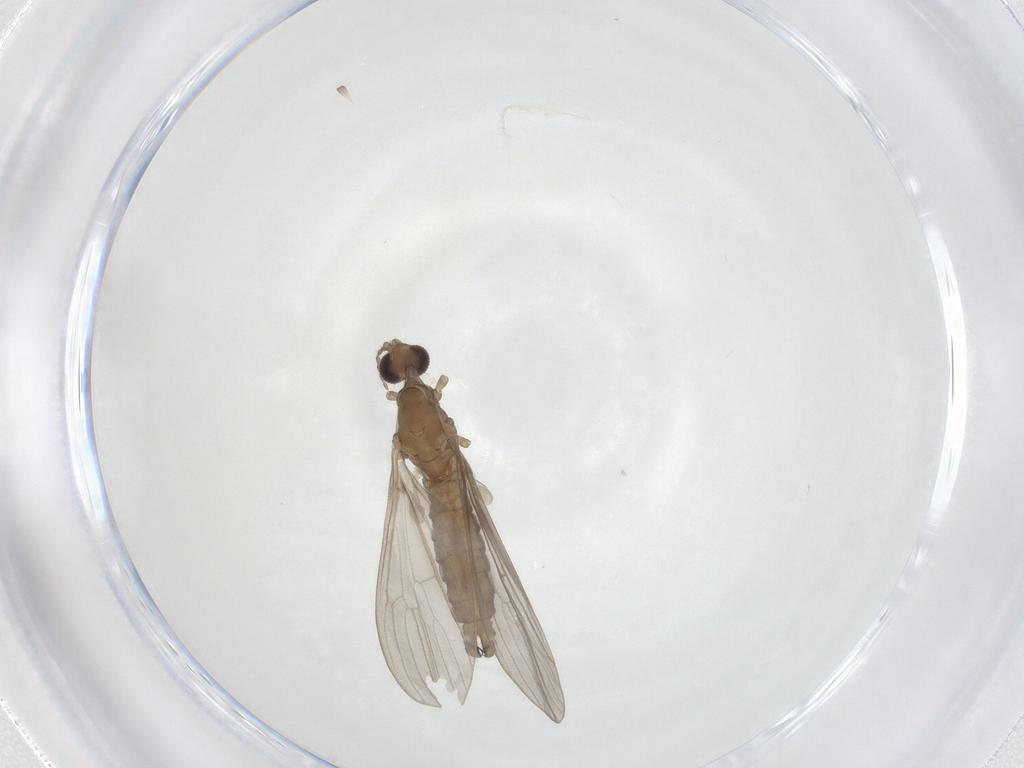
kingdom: Animalia
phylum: Arthropoda
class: Insecta
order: Diptera
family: Limoniidae
